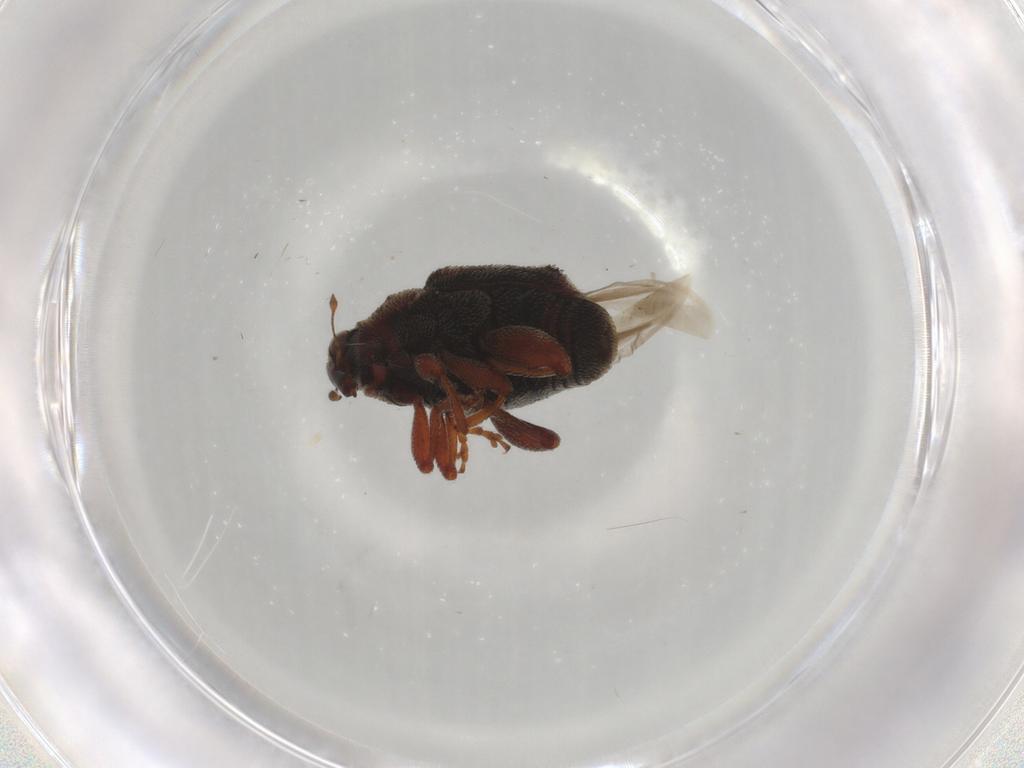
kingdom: Animalia
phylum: Arthropoda
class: Insecta
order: Coleoptera
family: Curculionidae
